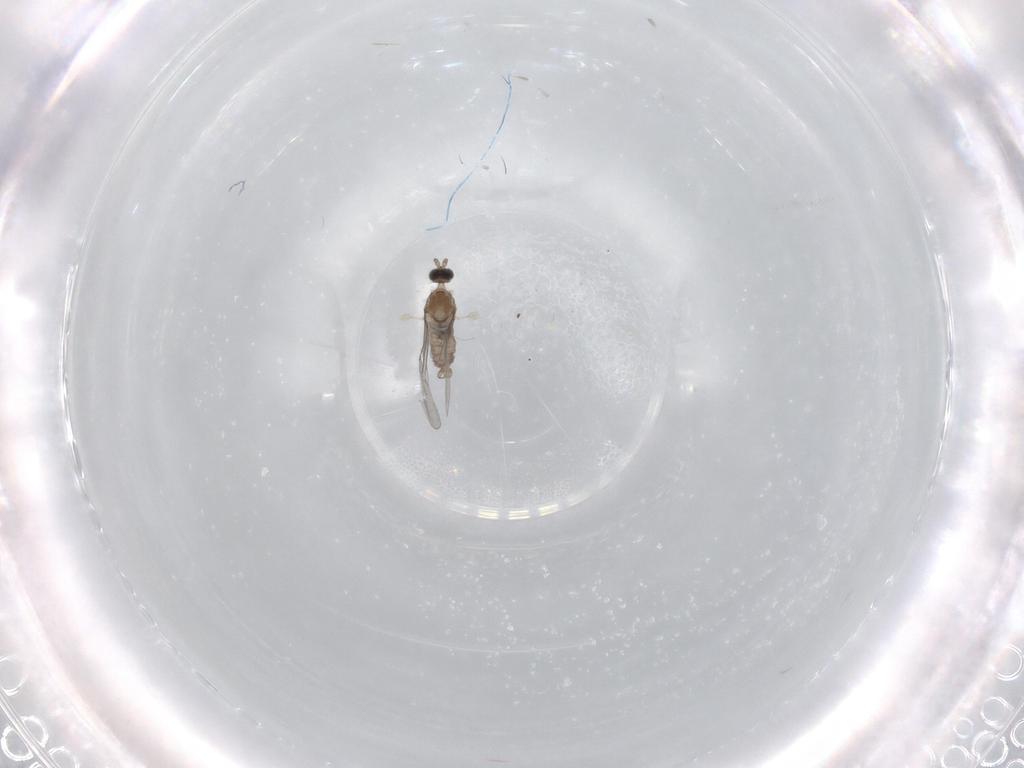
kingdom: Animalia
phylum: Arthropoda
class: Insecta
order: Diptera
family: Cecidomyiidae
